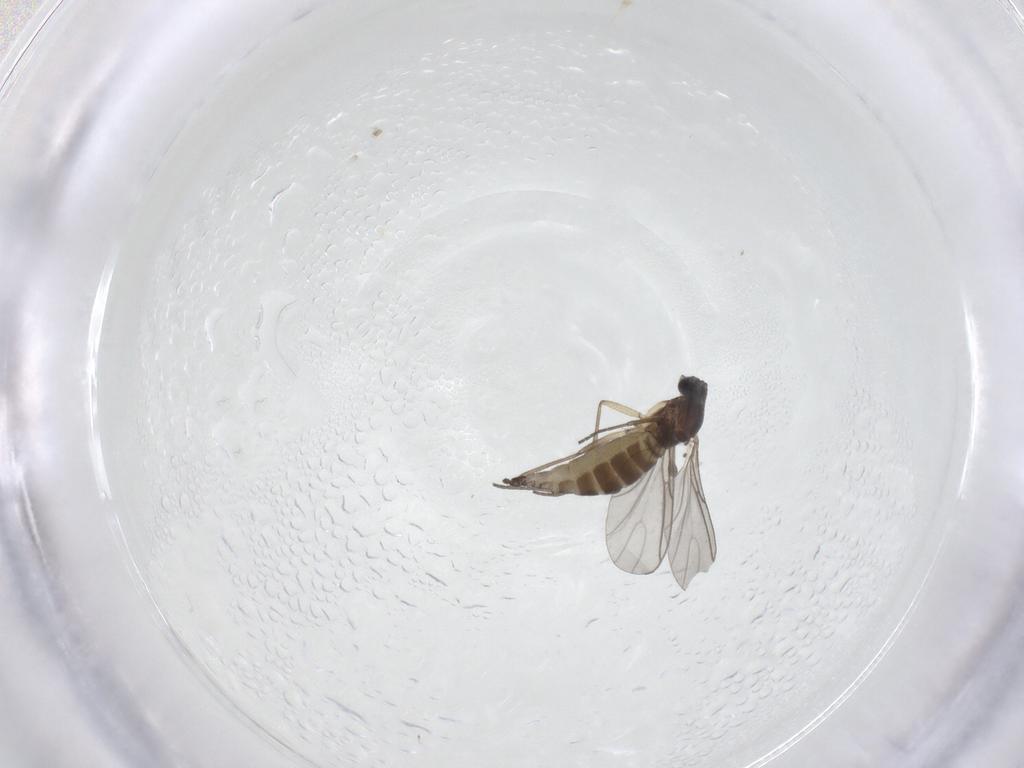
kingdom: Animalia
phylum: Arthropoda
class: Insecta
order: Diptera
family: Sciaridae
